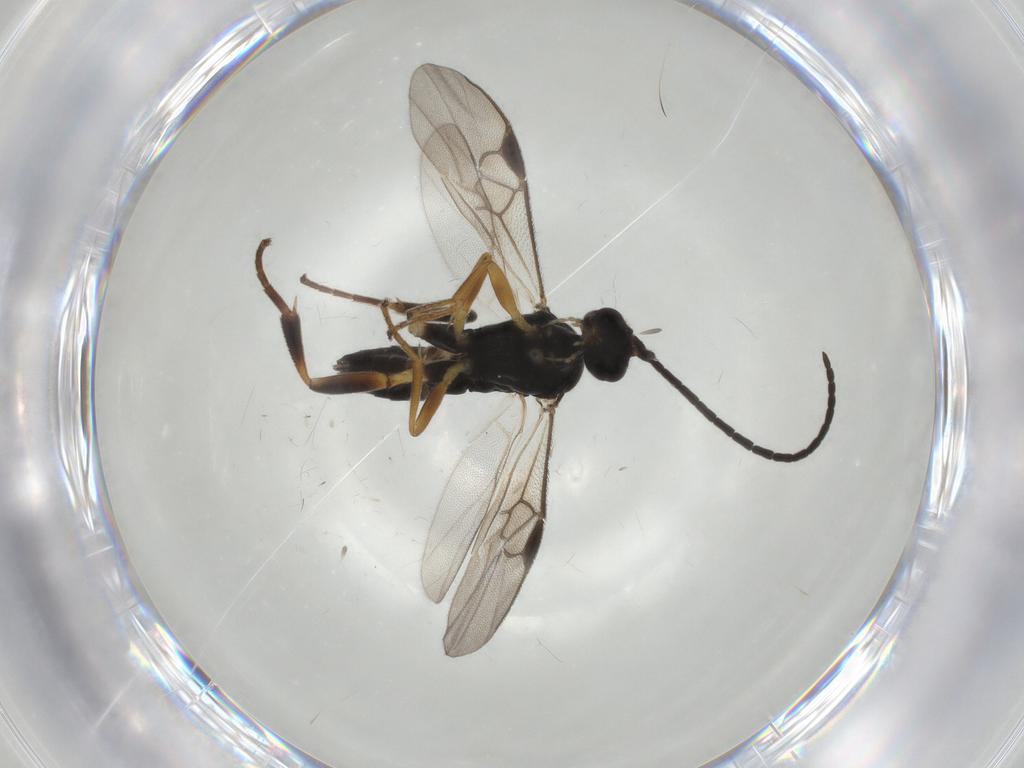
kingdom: Animalia
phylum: Arthropoda
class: Insecta
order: Hymenoptera
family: Braconidae
